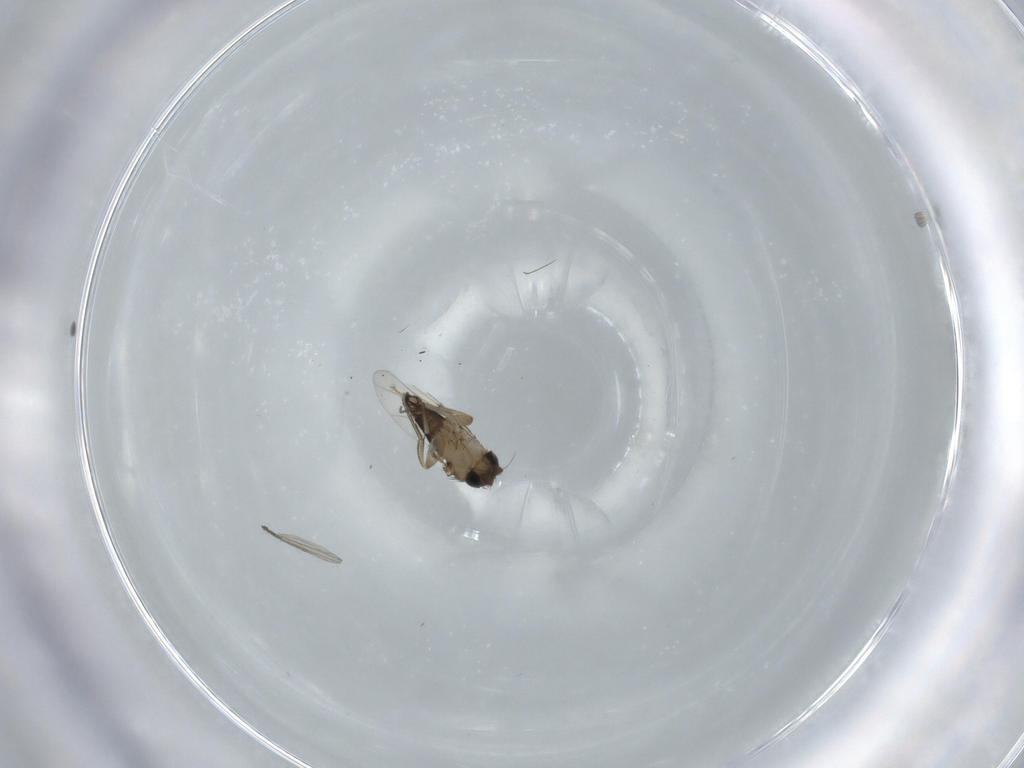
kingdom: Animalia
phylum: Arthropoda
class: Insecta
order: Diptera
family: Phoridae
